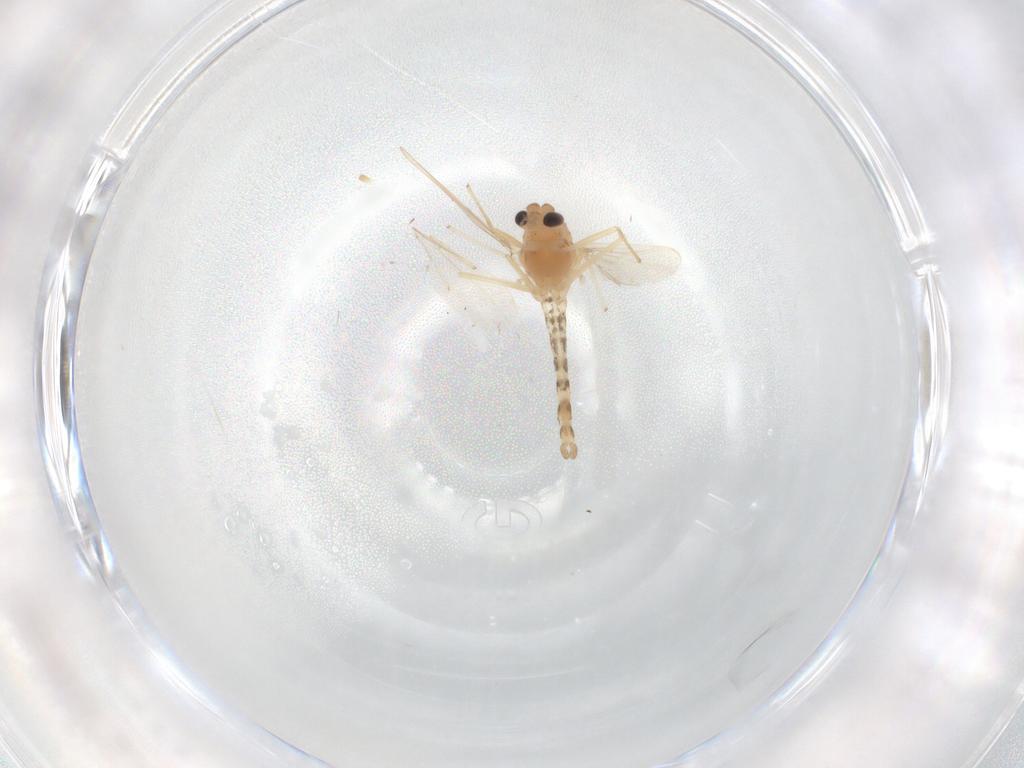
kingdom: Animalia
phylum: Arthropoda
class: Insecta
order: Diptera
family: Chironomidae
